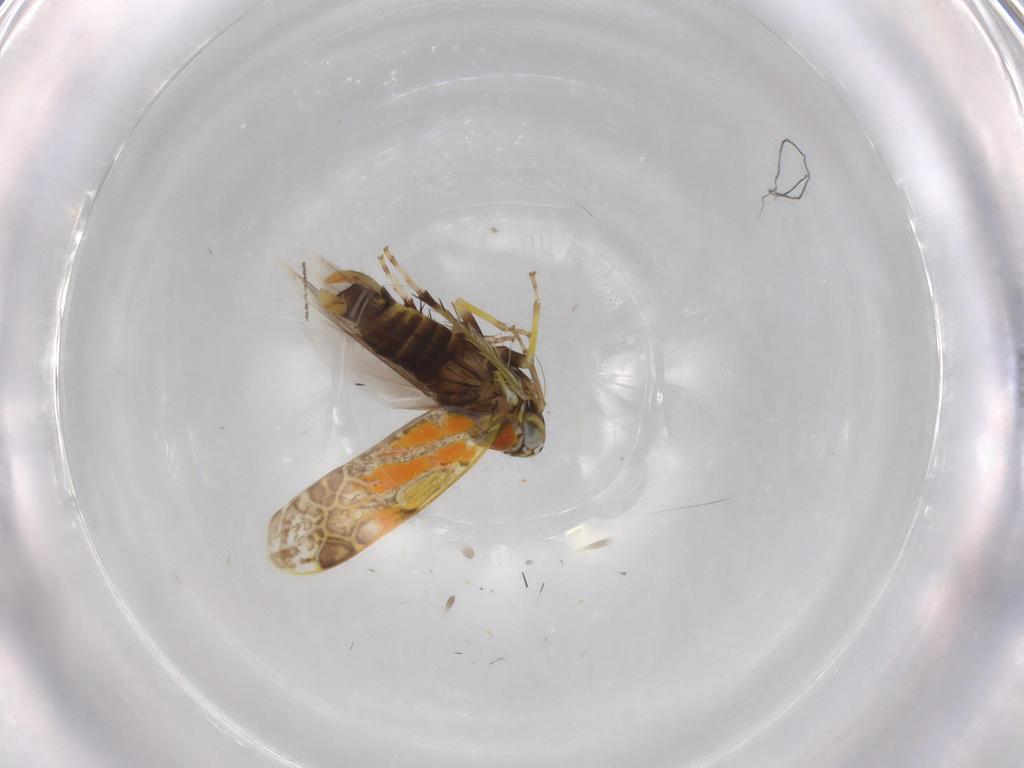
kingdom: Animalia
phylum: Arthropoda
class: Insecta
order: Hemiptera
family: Cicadellidae
